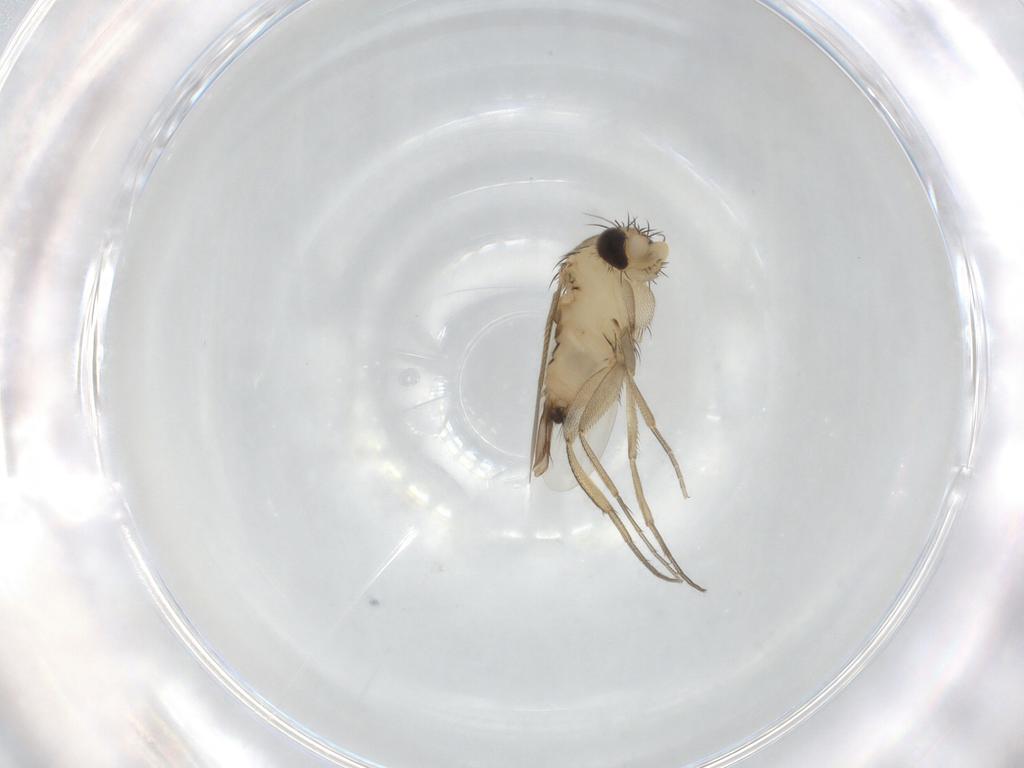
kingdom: Animalia
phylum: Arthropoda
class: Insecta
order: Diptera
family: Phoridae
